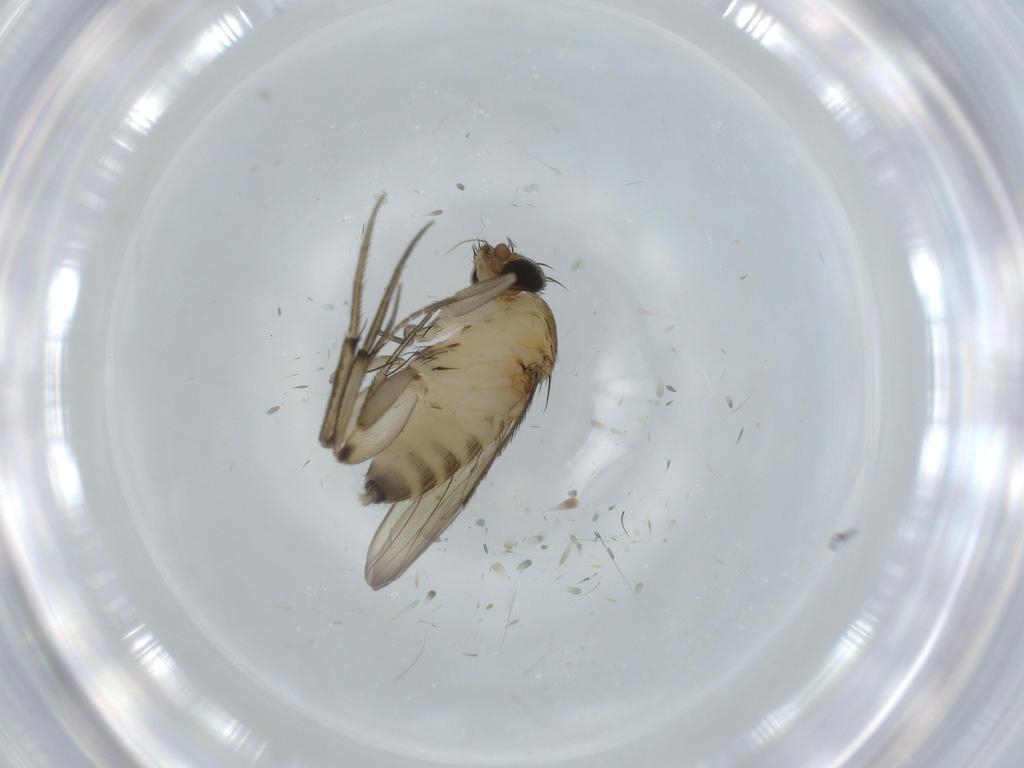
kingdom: Animalia
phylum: Arthropoda
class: Insecta
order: Diptera
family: Phoridae
